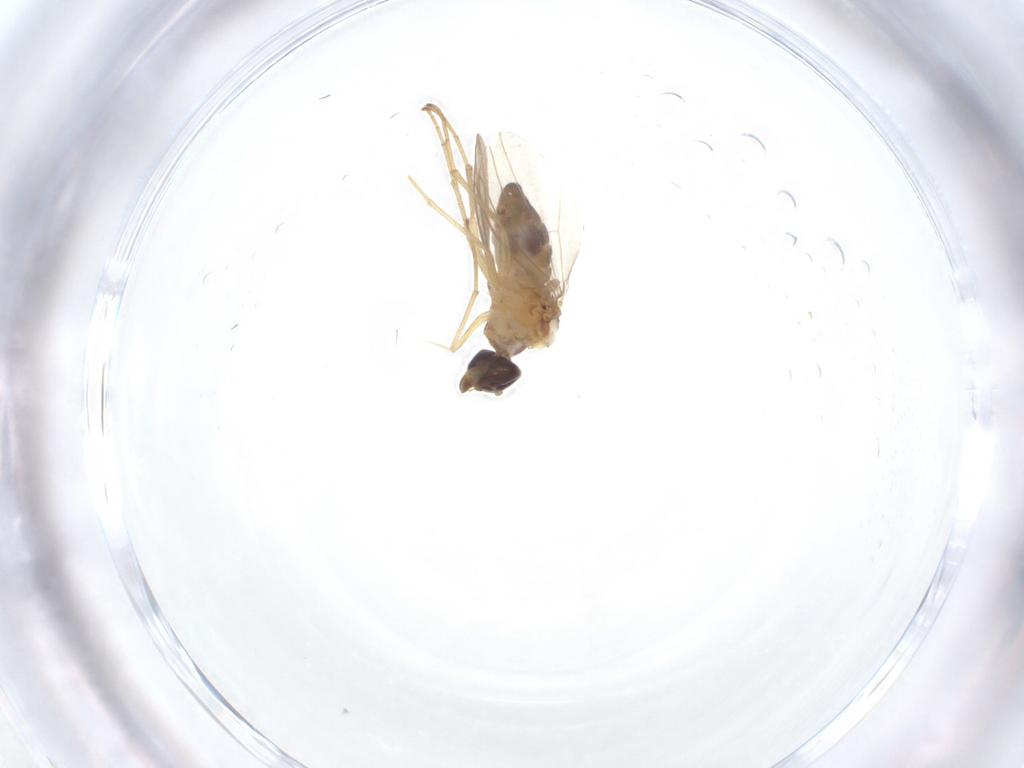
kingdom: Animalia
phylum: Arthropoda
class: Insecta
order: Diptera
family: Dolichopodidae
